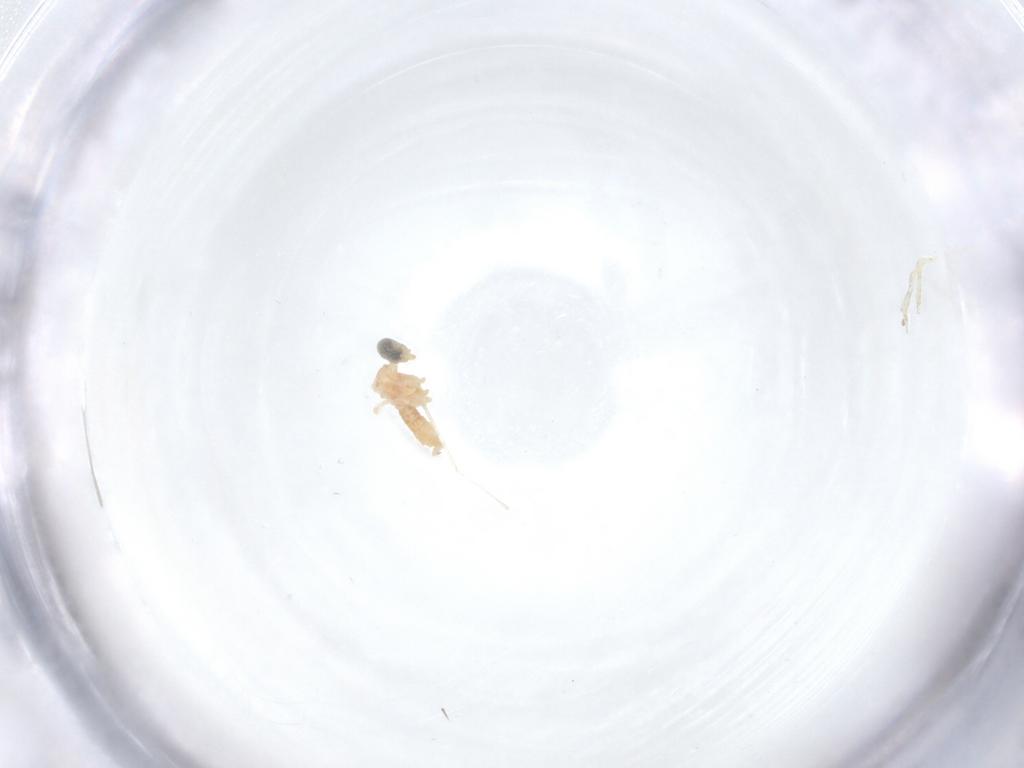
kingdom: Animalia
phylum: Arthropoda
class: Insecta
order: Diptera
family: Cecidomyiidae
